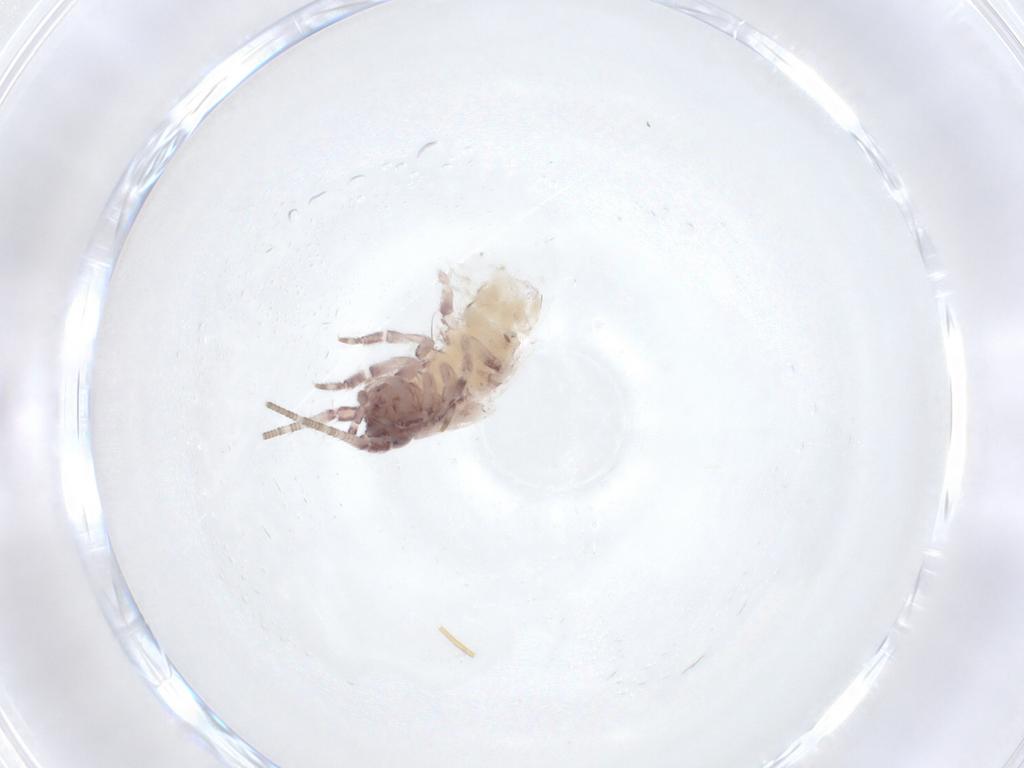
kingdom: Animalia
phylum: Arthropoda
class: Insecta
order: Archaeognatha
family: Machilidae
